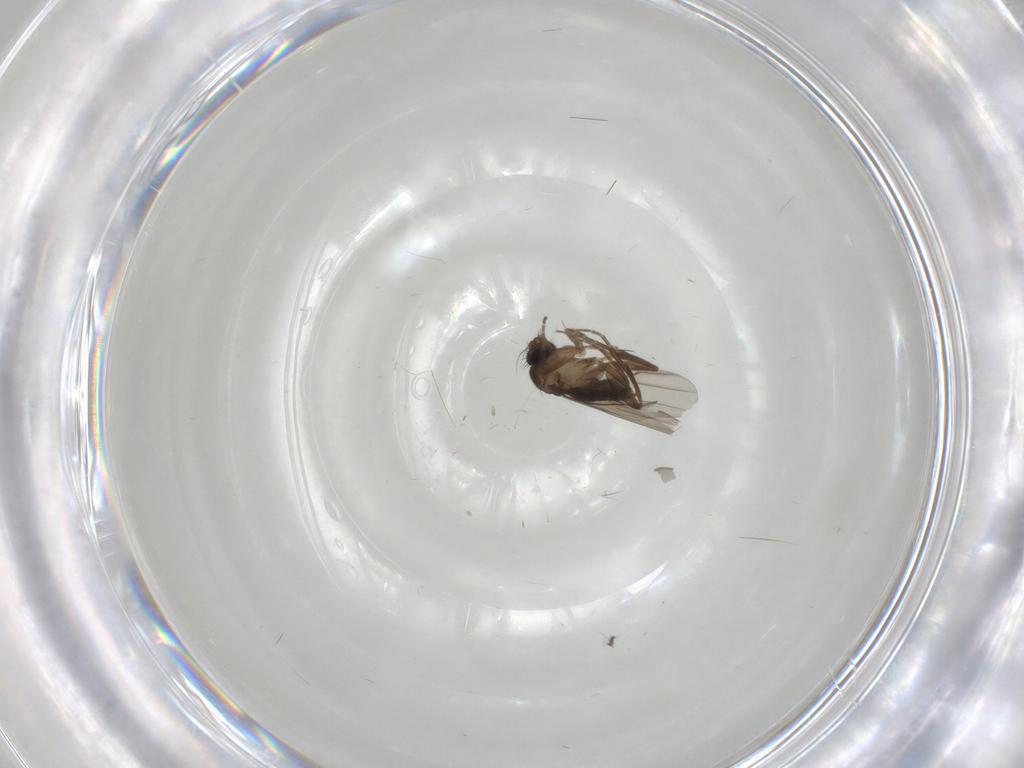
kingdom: Animalia
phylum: Arthropoda
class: Insecta
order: Diptera
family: Phoridae
